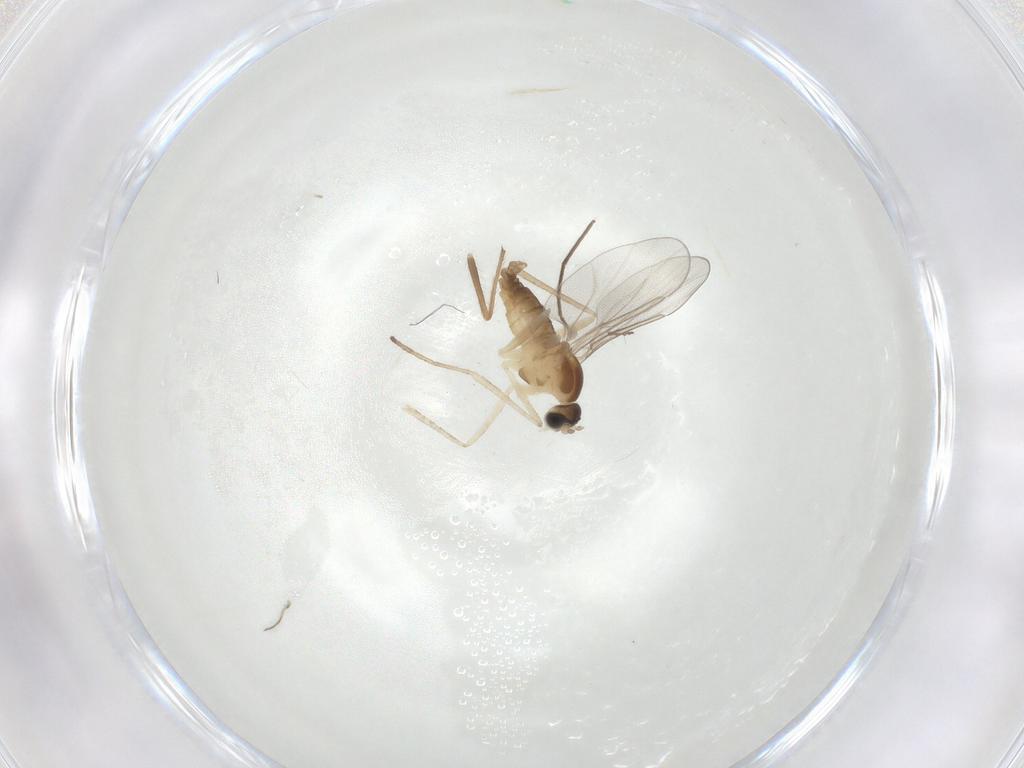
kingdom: Animalia
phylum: Arthropoda
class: Insecta
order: Diptera
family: Chironomidae
